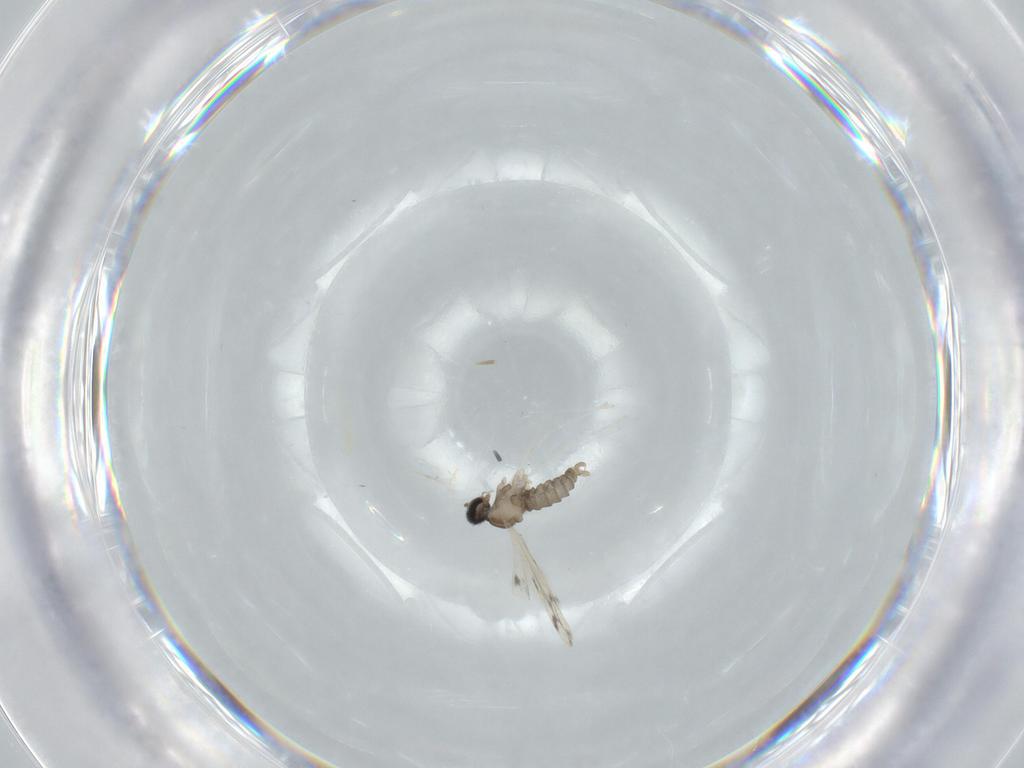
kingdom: Animalia
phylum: Arthropoda
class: Insecta
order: Diptera
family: Cecidomyiidae
